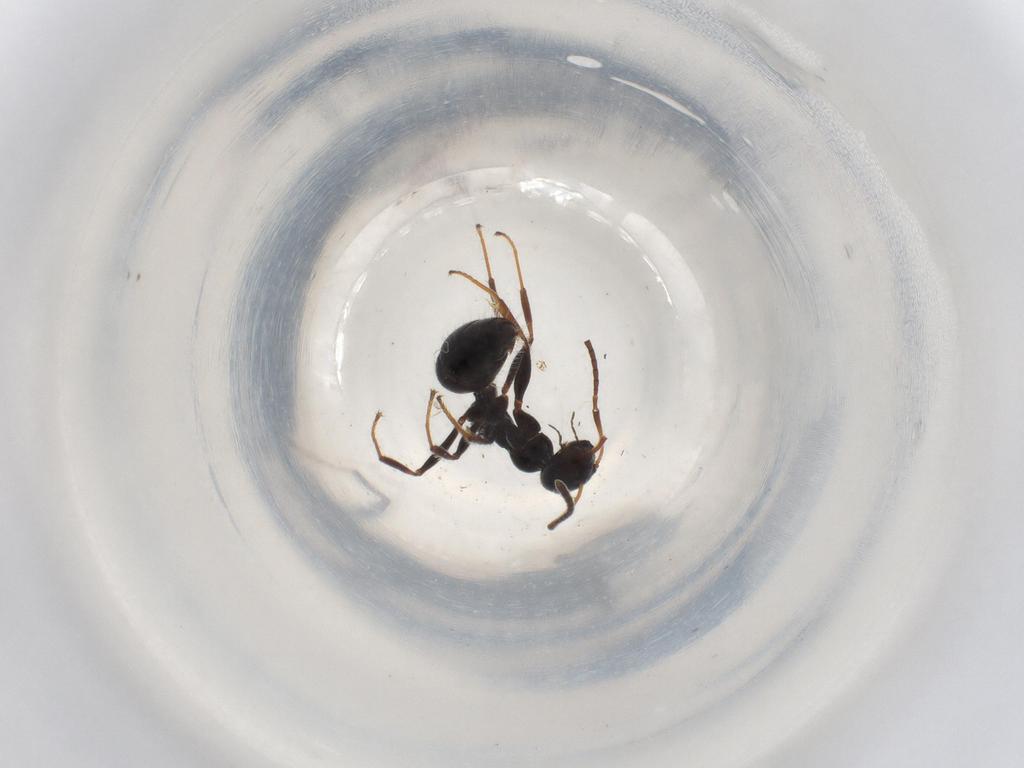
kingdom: Animalia
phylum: Arthropoda
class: Insecta
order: Hymenoptera
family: Formicidae
